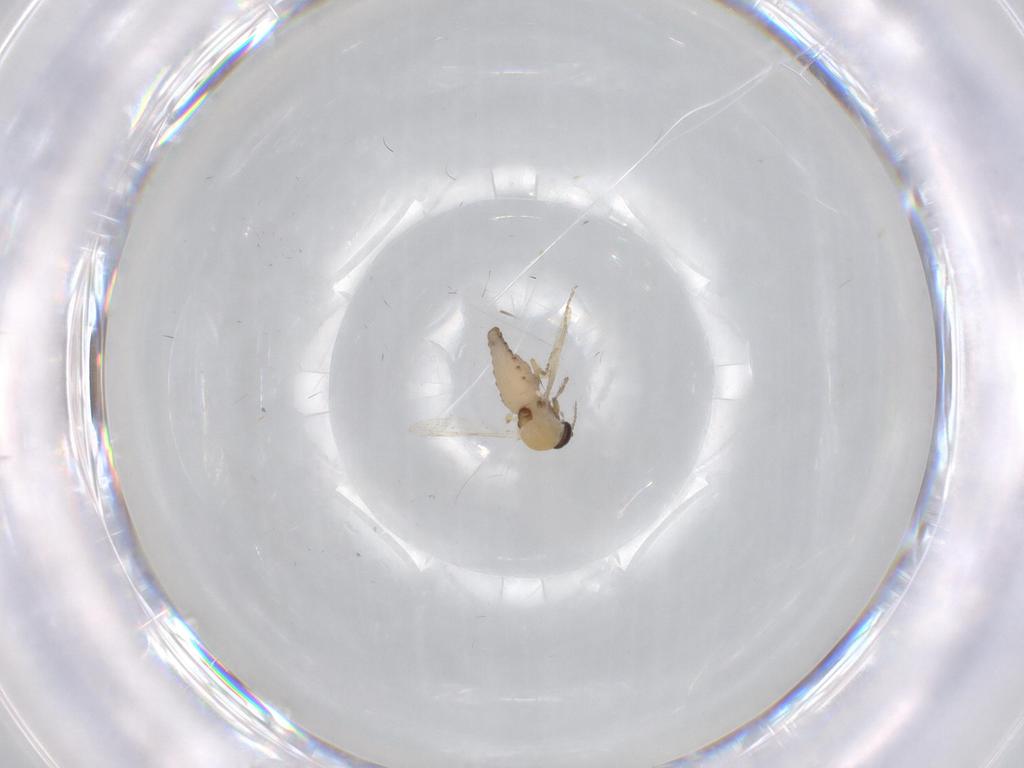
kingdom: Animalia
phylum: Arthropoda
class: Insecta
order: Diptera
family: Ceratopogonidae
